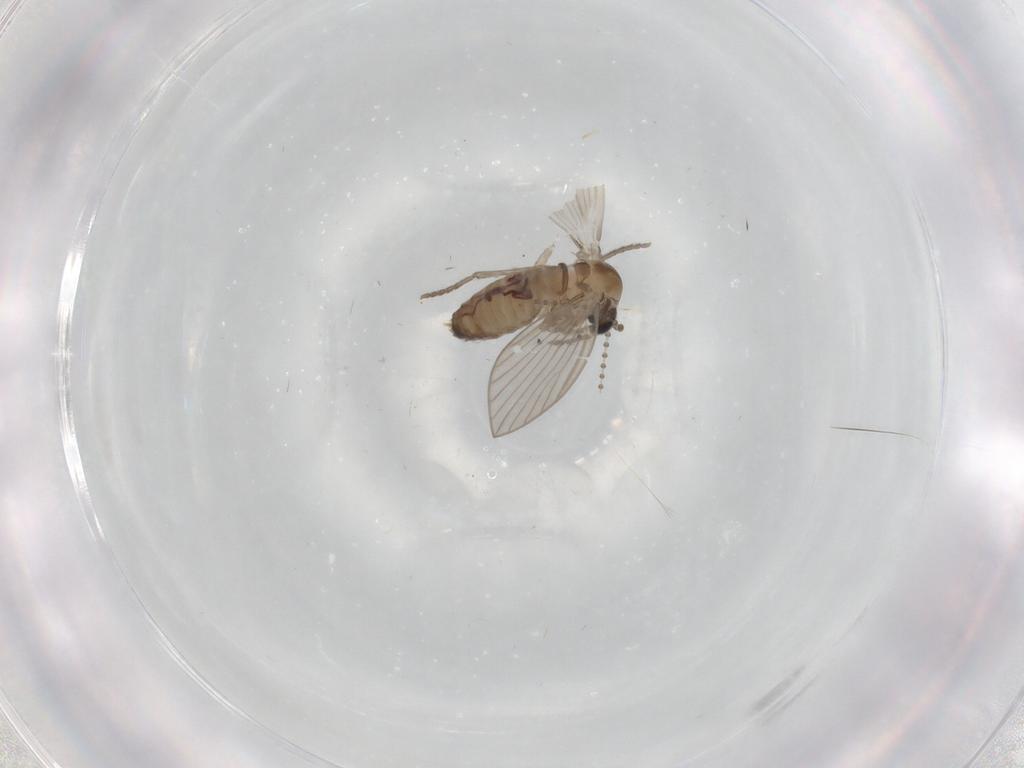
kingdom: Animalia
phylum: Arthropoda
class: Insecta
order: Diptera
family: Psychodidae
